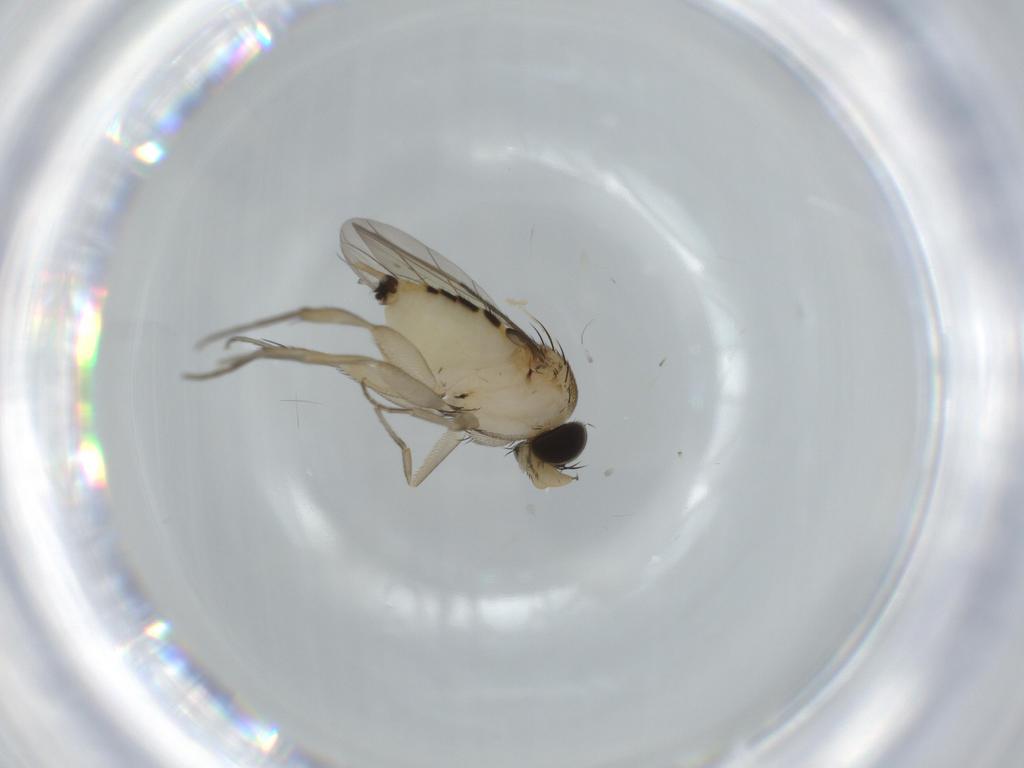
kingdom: Animalia
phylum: Arthropoda
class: Insecta
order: Diptera
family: Phoridae
